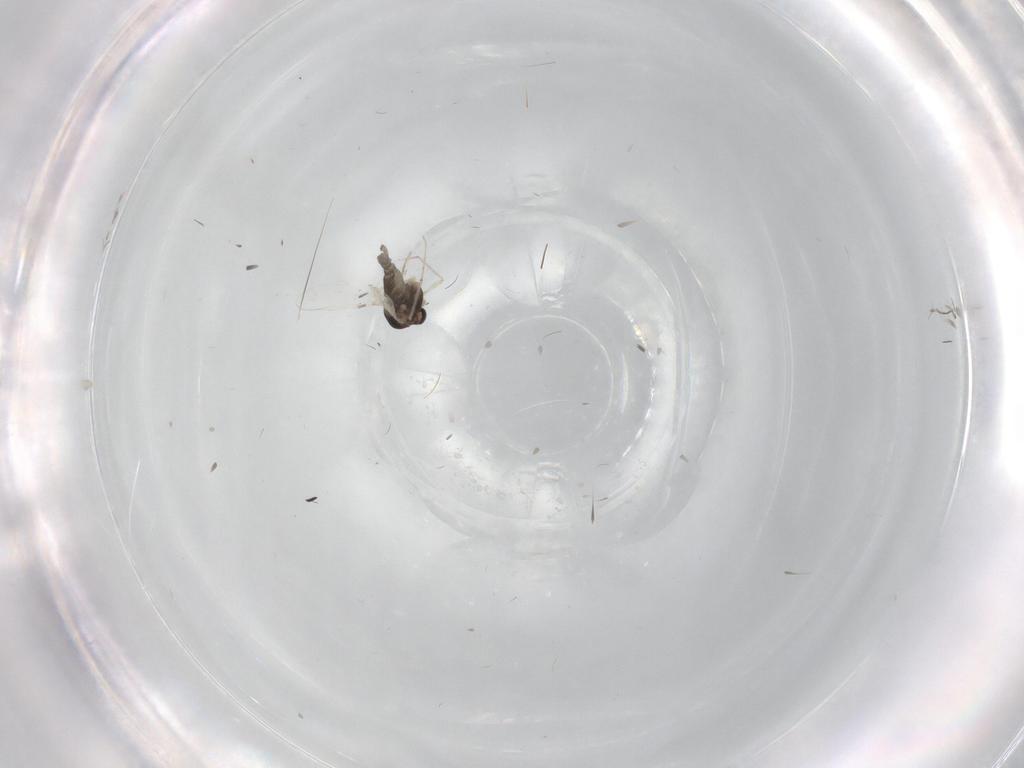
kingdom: Animalia
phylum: Arthropoda
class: Insecta
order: Diptera
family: Chironomidae
